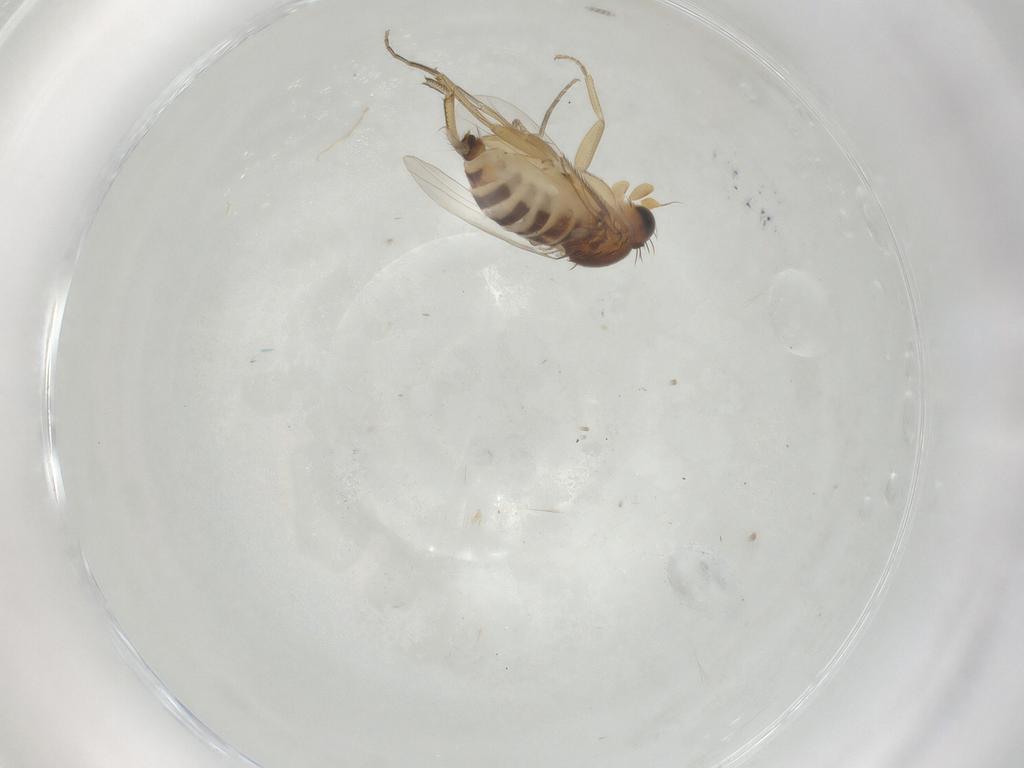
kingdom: Animalia
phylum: Arthropoda
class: Insecta
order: Diptera
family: Phoridae
